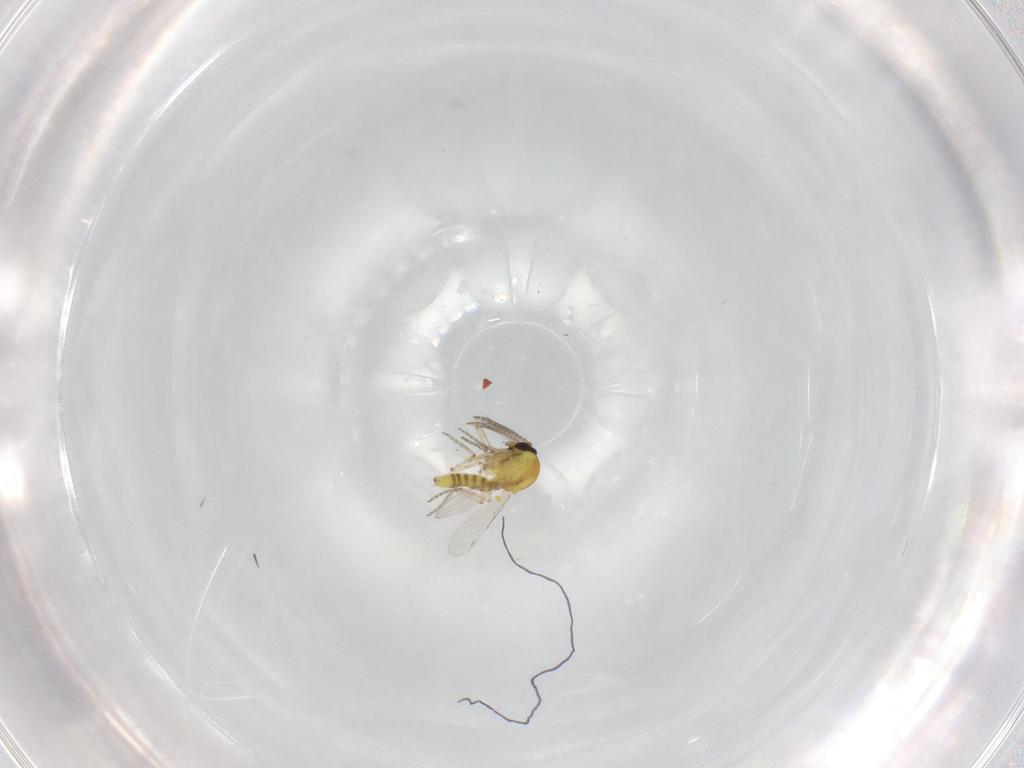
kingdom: Animalia
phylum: Arthropoda
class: Insecta
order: Diptera
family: Ceratopogonidae
